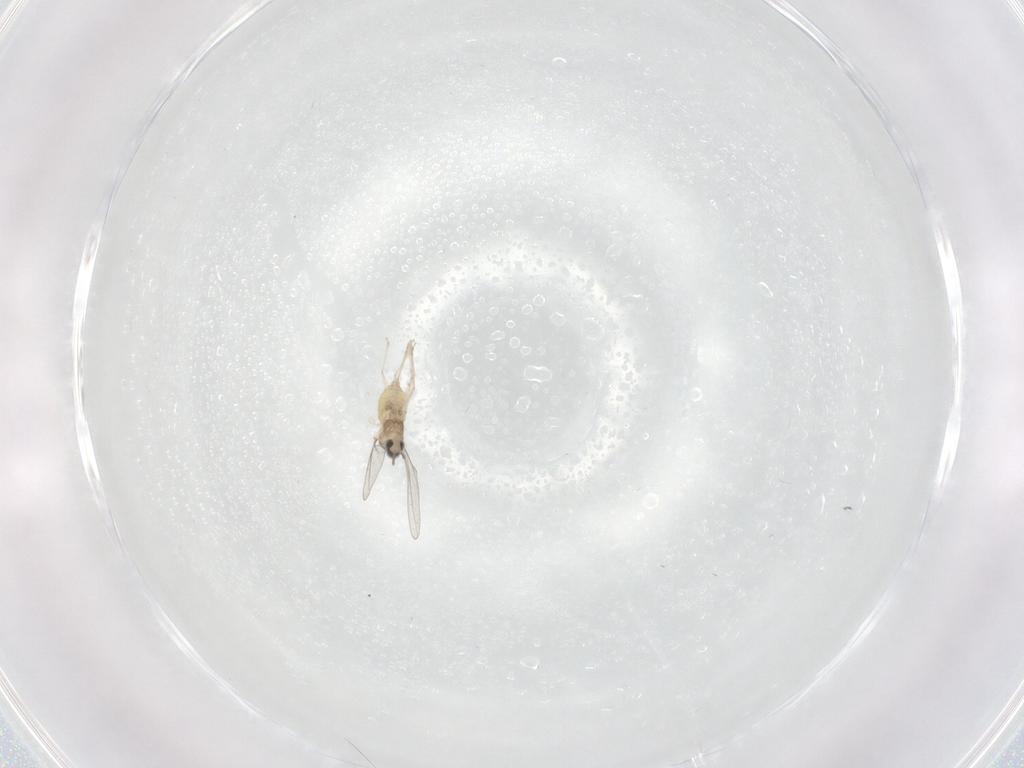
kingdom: Animalia
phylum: Arthropoda
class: Insecta
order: Diptera
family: Cecidomyiidae
